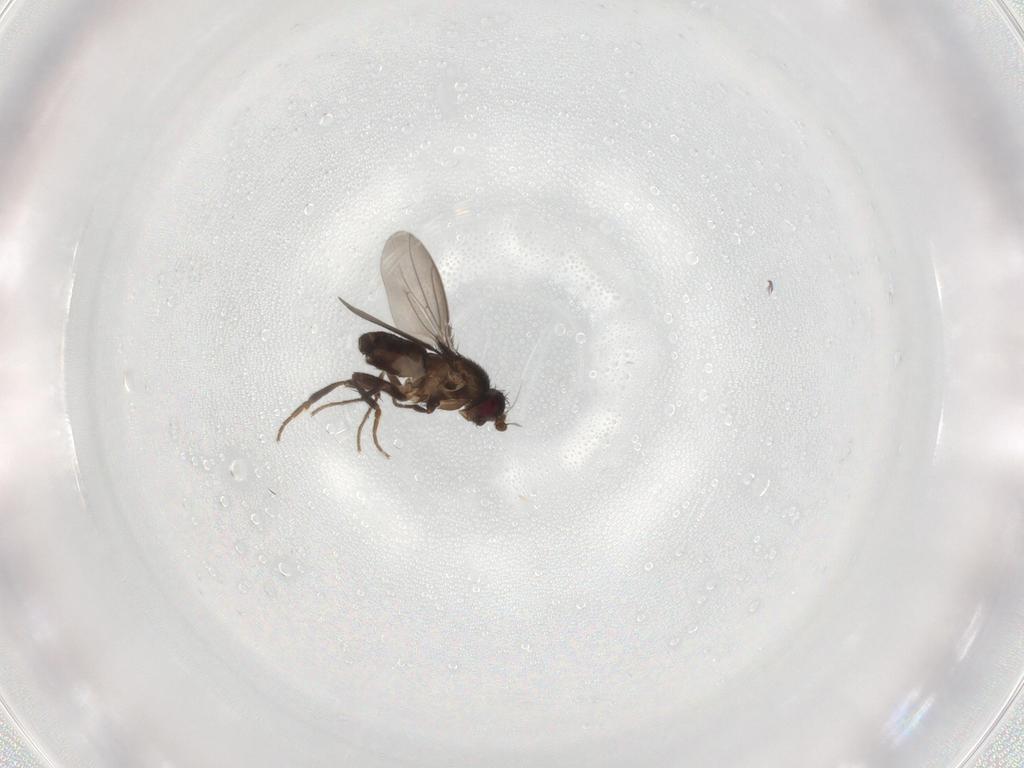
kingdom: Animalia
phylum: Arthropoda
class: Insecta
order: Diptera
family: Sphaeroceridae
